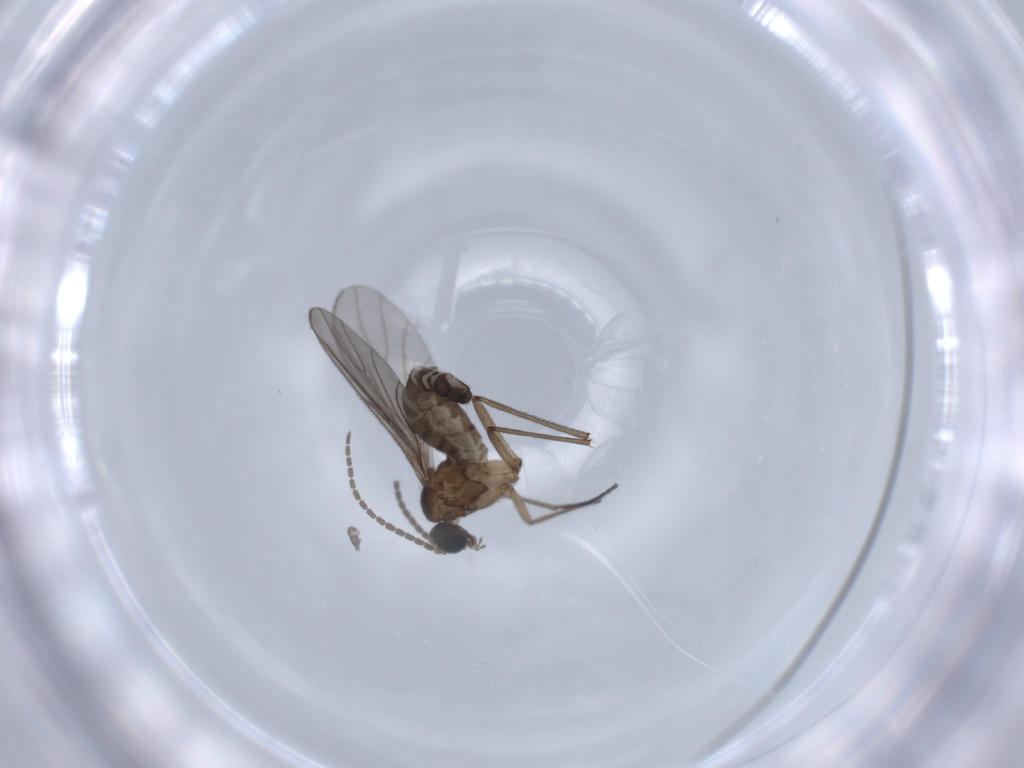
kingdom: Animalia
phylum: Arthropoda
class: Insecta
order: Diptera
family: Sciaridae
